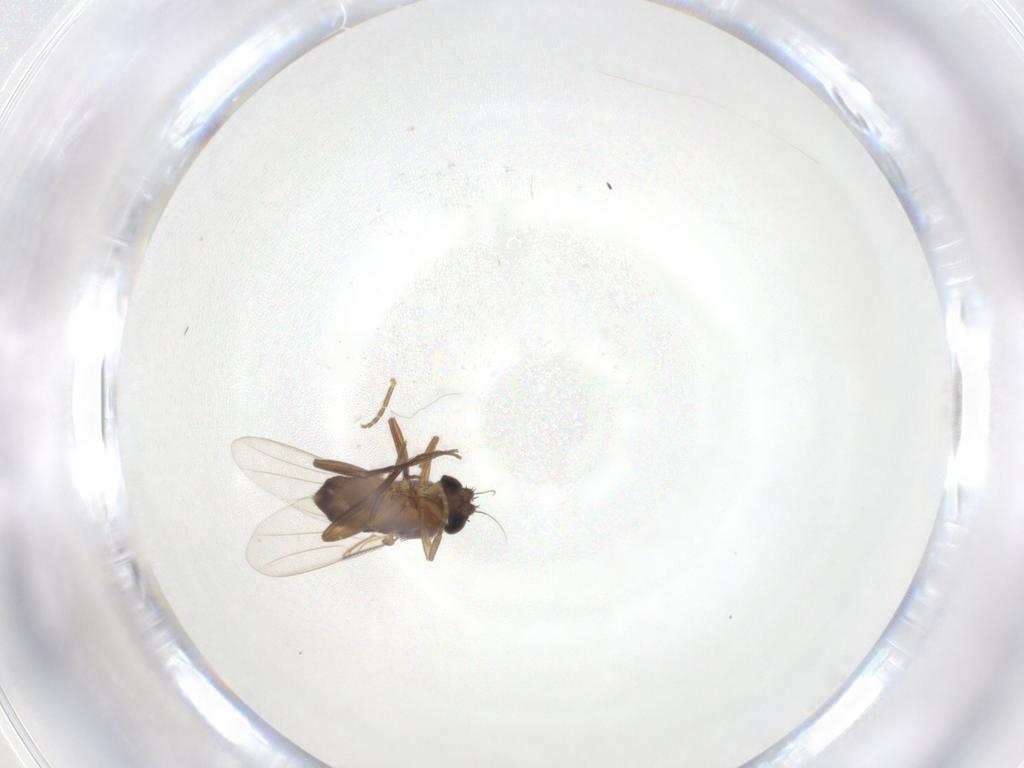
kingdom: Animalia
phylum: Arthropoda
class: Insecta
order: Diptera
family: Phoridae
